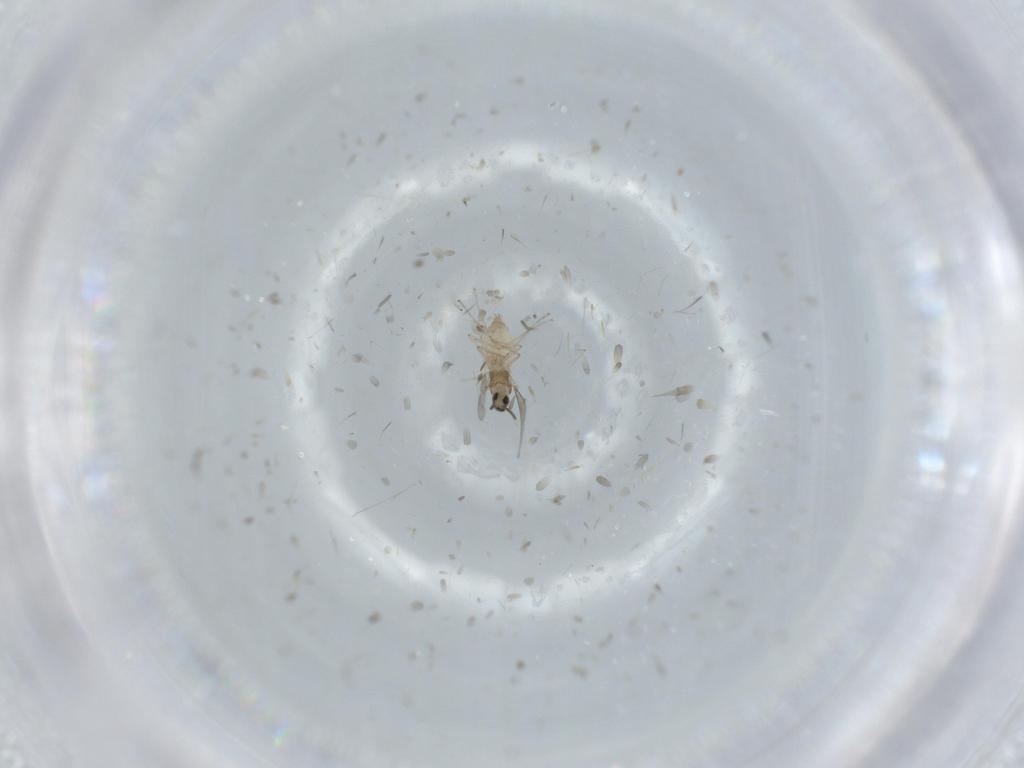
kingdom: Animalia
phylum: Arthropoda
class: Insecta
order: Diptera
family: Cecidomyiidae
